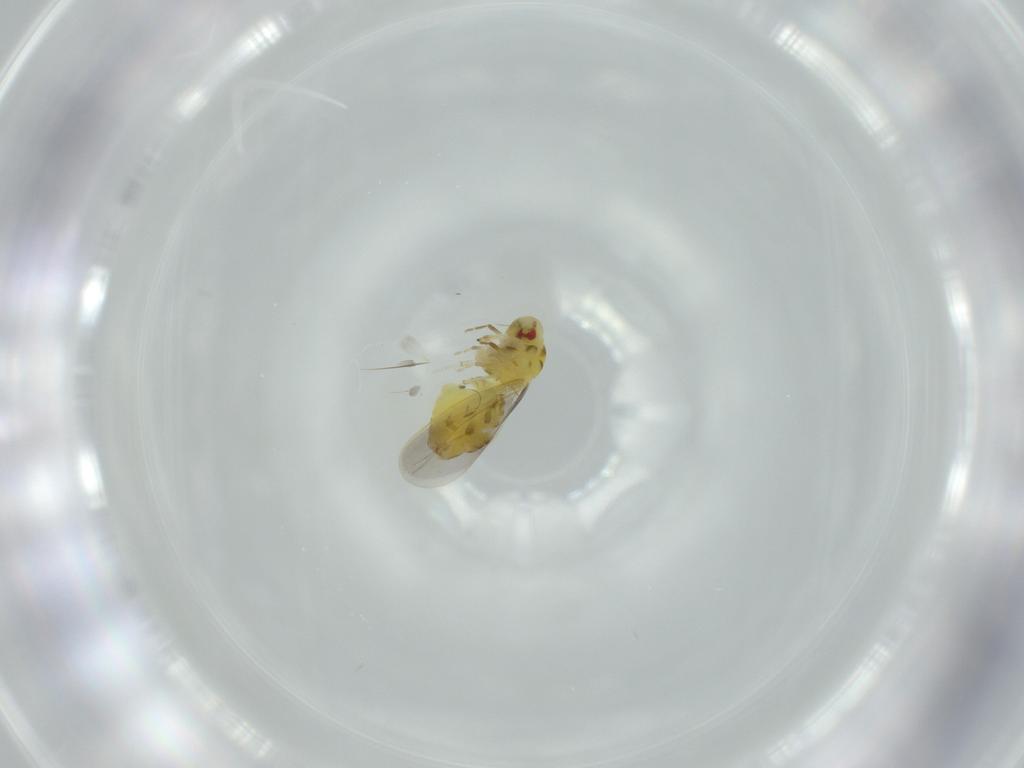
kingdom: Animalia
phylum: Arthropoda
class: Insecta
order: Hemiptera
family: Aleyrodidae
